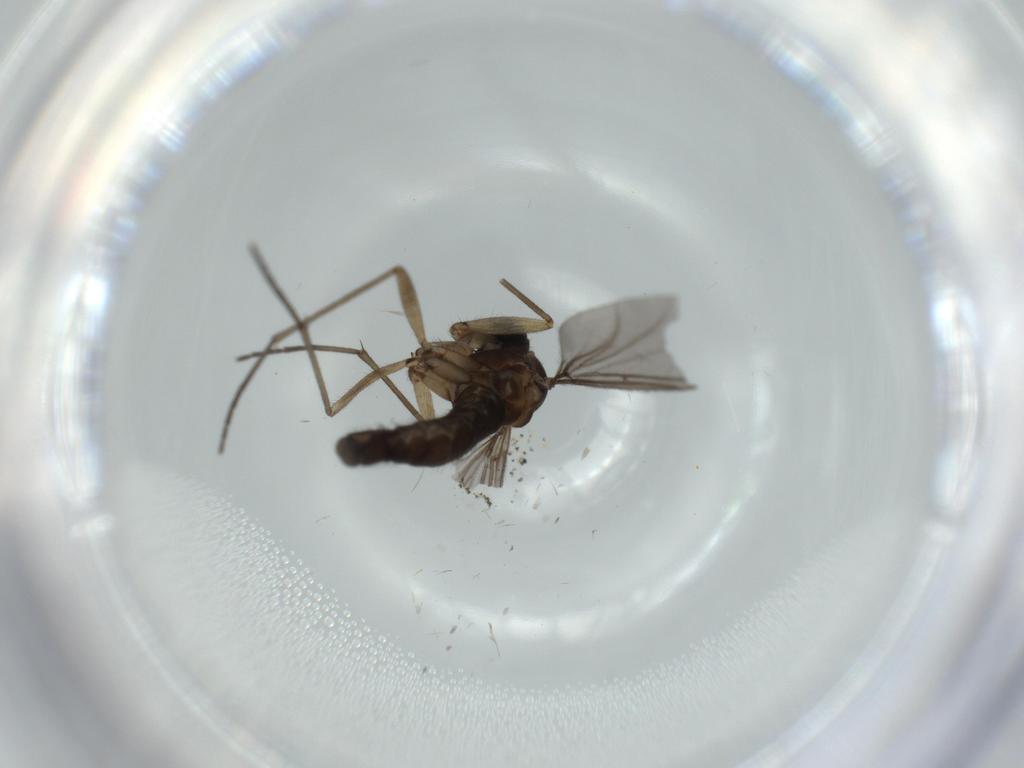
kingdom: Animalia
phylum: Arthropoda
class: Insecta
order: Diptera
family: Sciaridae
